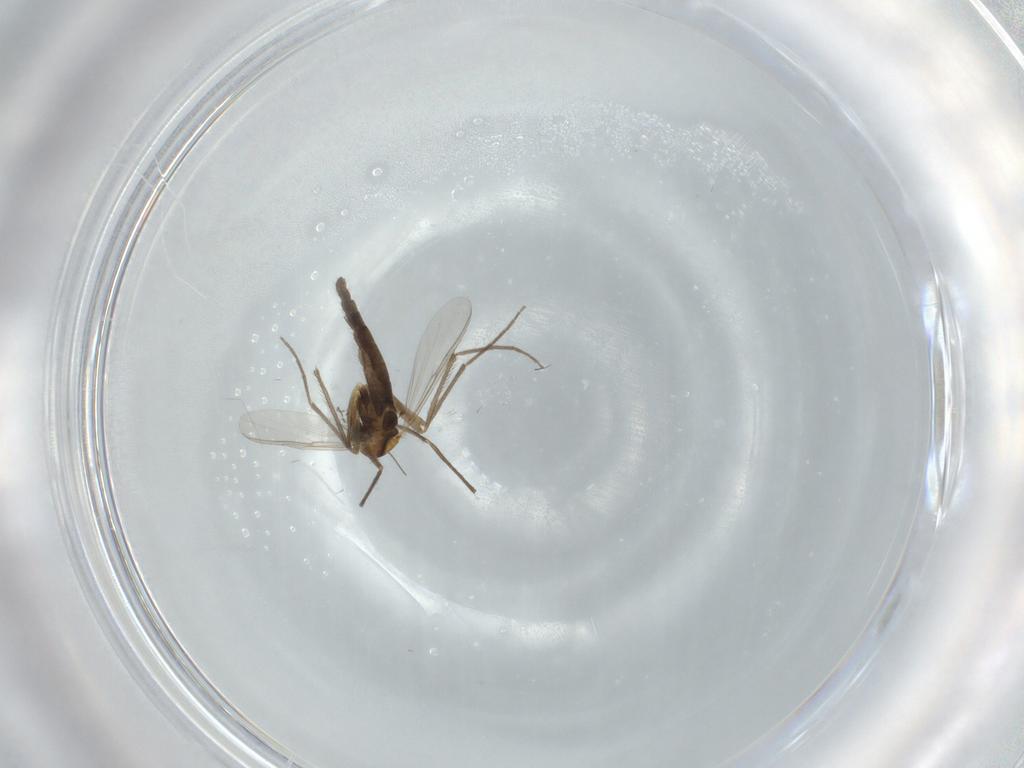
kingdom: Animalia
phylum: Arthropoda
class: Insecta
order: Diptera
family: Chironomidae
